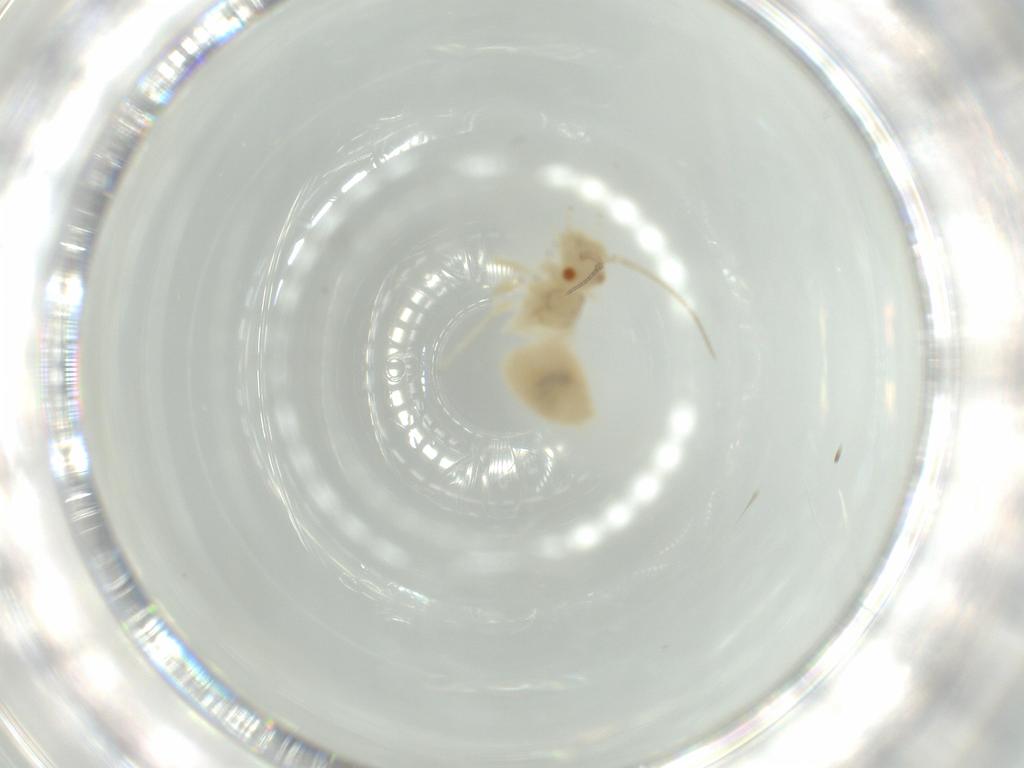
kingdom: Animalia
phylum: Arthropoda
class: Insecta
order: Psocodea
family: Caeciliusidae
